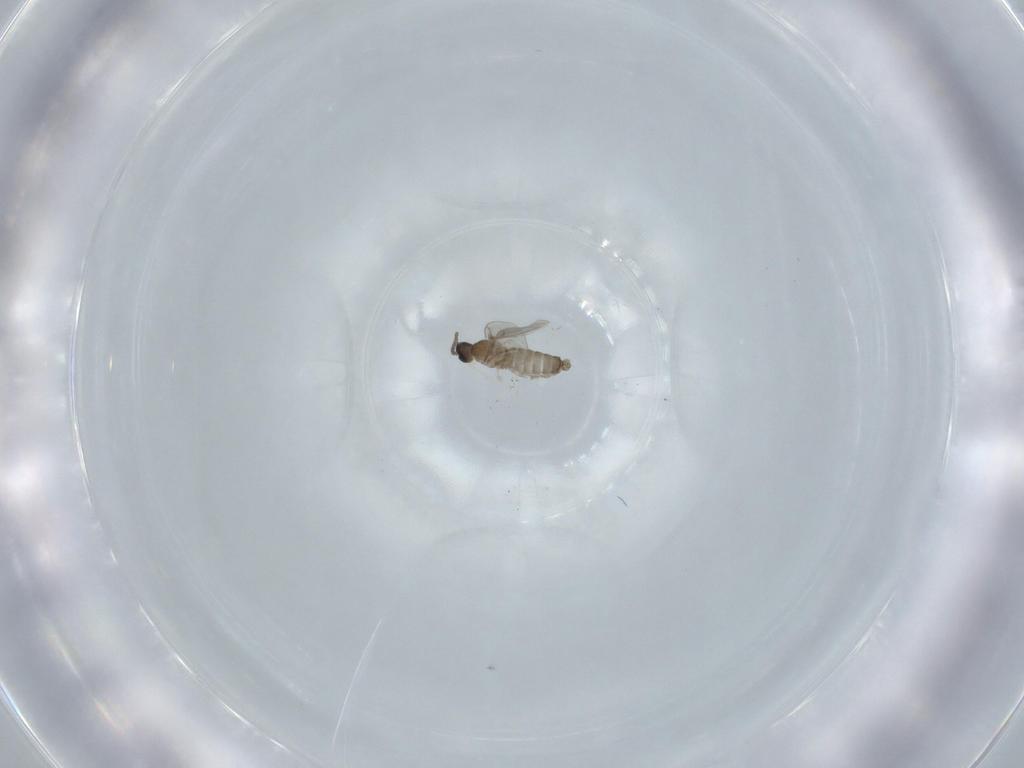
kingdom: Animalia
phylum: Arthropoda
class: Insecta
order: Diptera
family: Cecidomyiidae
